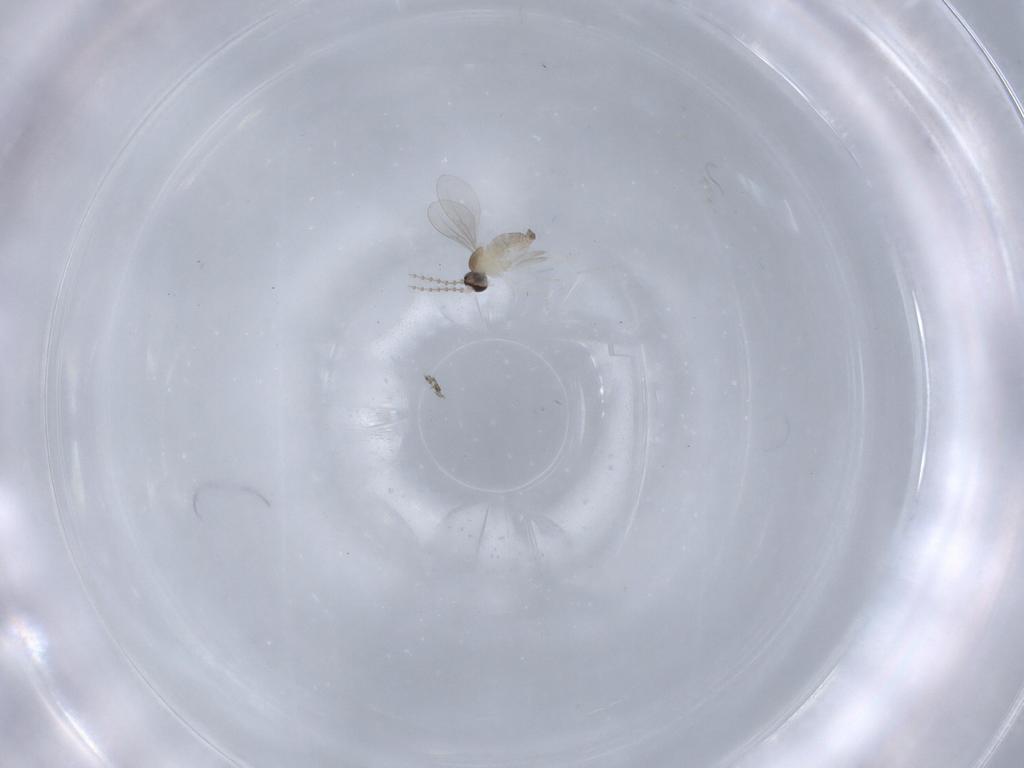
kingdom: Animalia
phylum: Arthropoda
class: Insecta
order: Diptera
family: Cecidomyiidae
